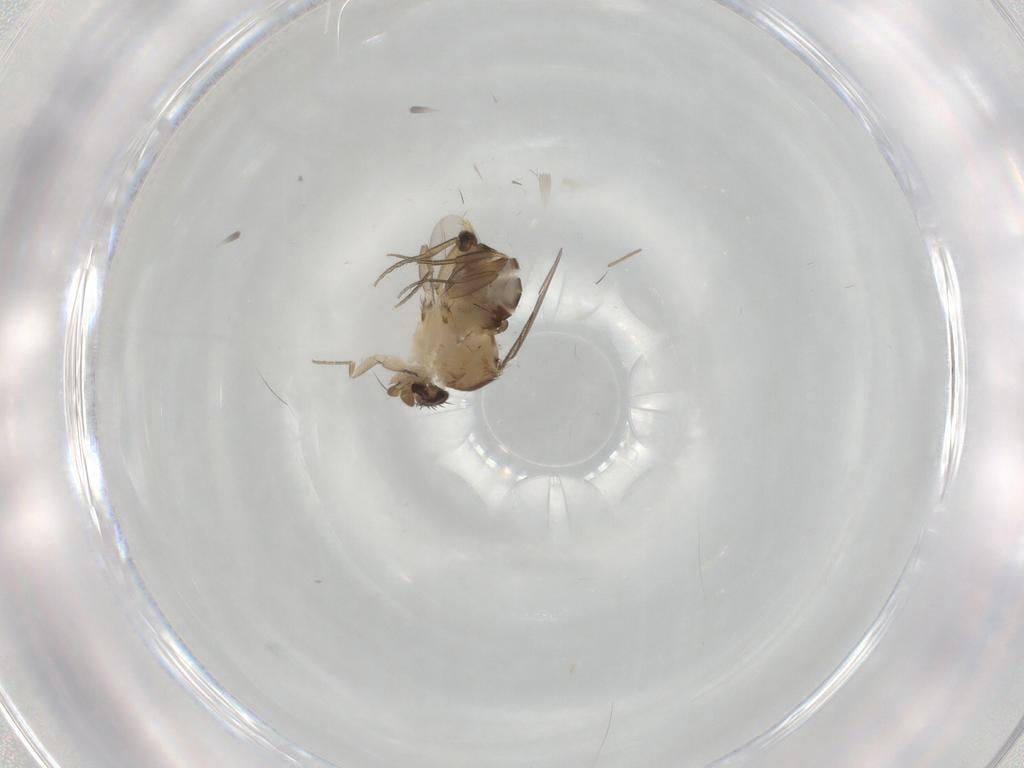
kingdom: Animalia
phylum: Arthropoda
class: Insecta
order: Diptera
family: Phoridae
